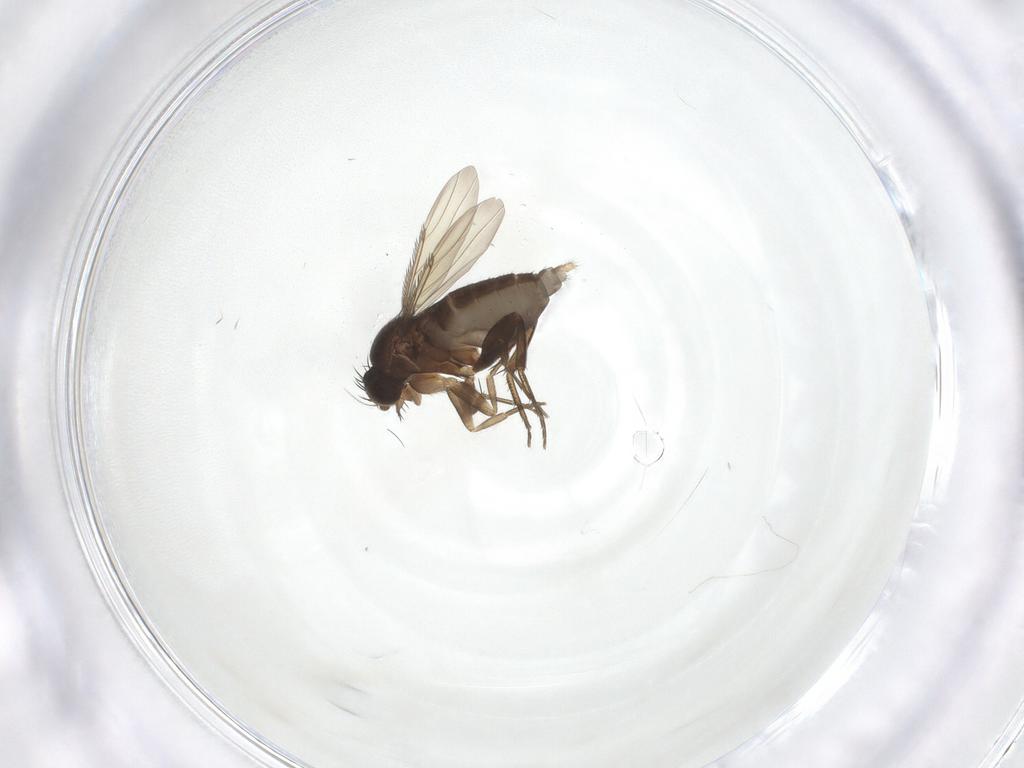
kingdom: Animalia
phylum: Arthropoda
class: Insecta
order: Diptera
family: Phoridae
